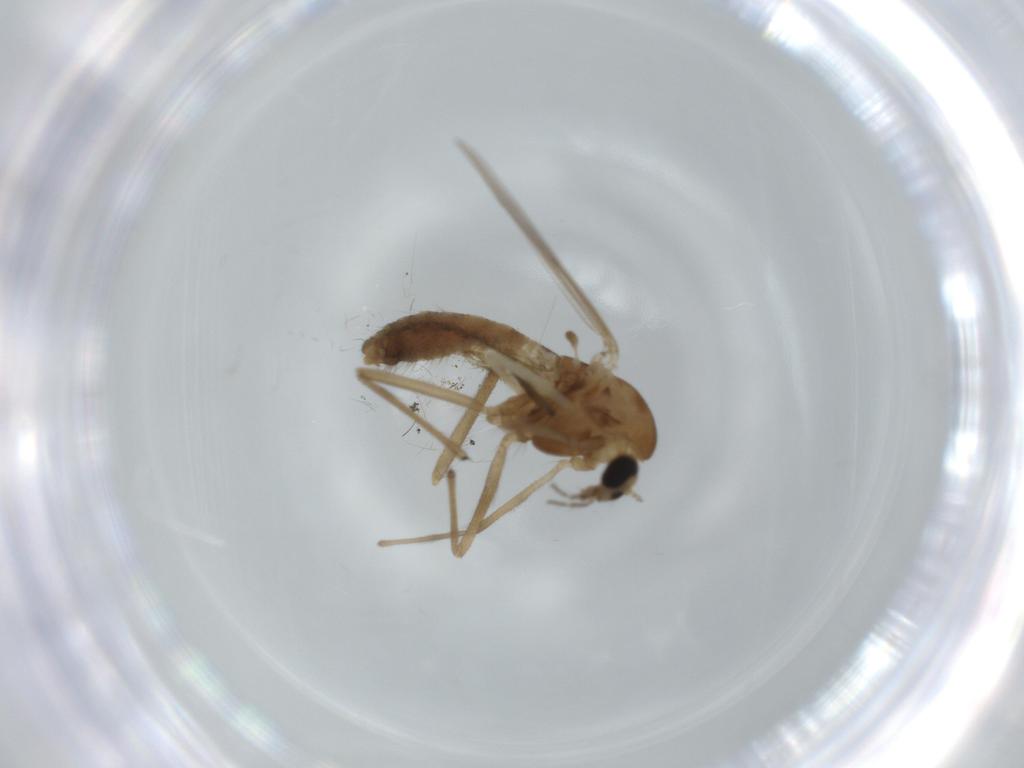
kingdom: Animalia
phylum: Arthropoda
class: Insecta
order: Diptera
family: Chironomidae
